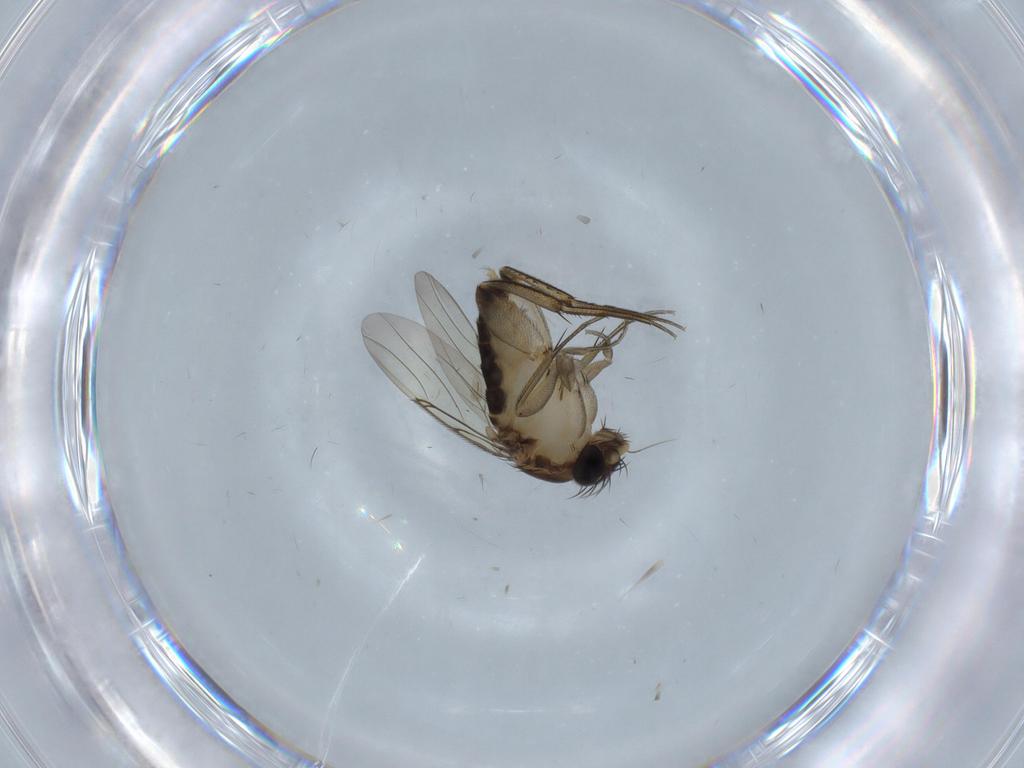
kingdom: Animalia
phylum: Arthropoda
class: Insecta
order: Diptera
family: Phoridae
